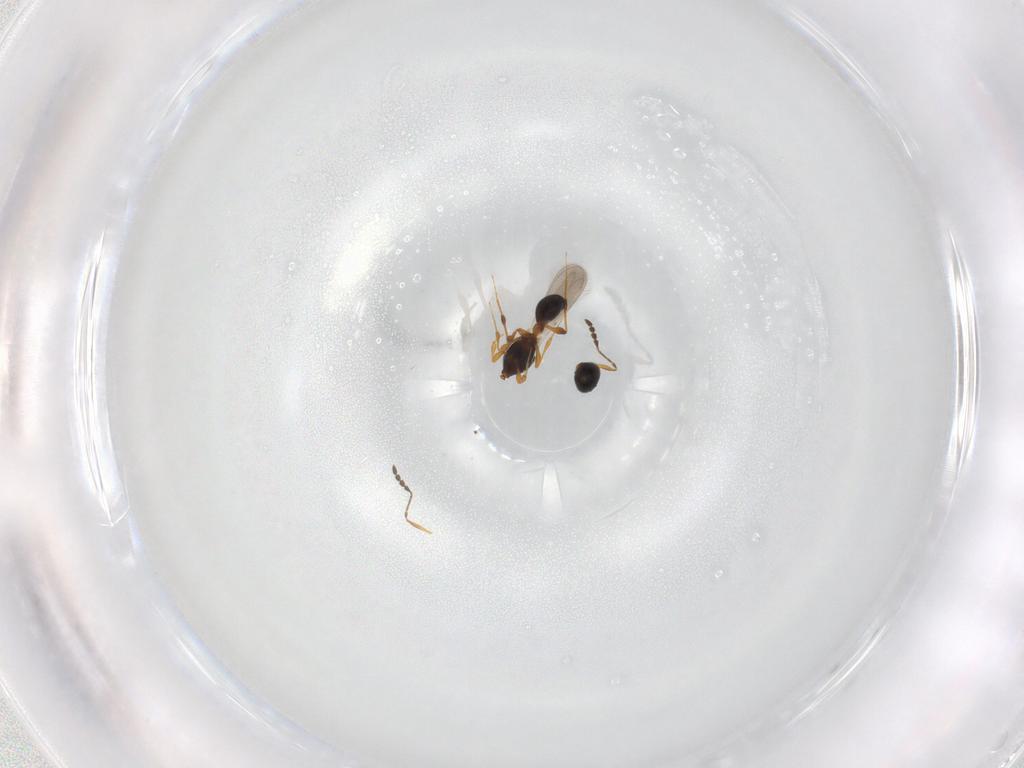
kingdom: Animalia
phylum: Arthropoda
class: Insecta
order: Hymenoptera
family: Platygastridae
